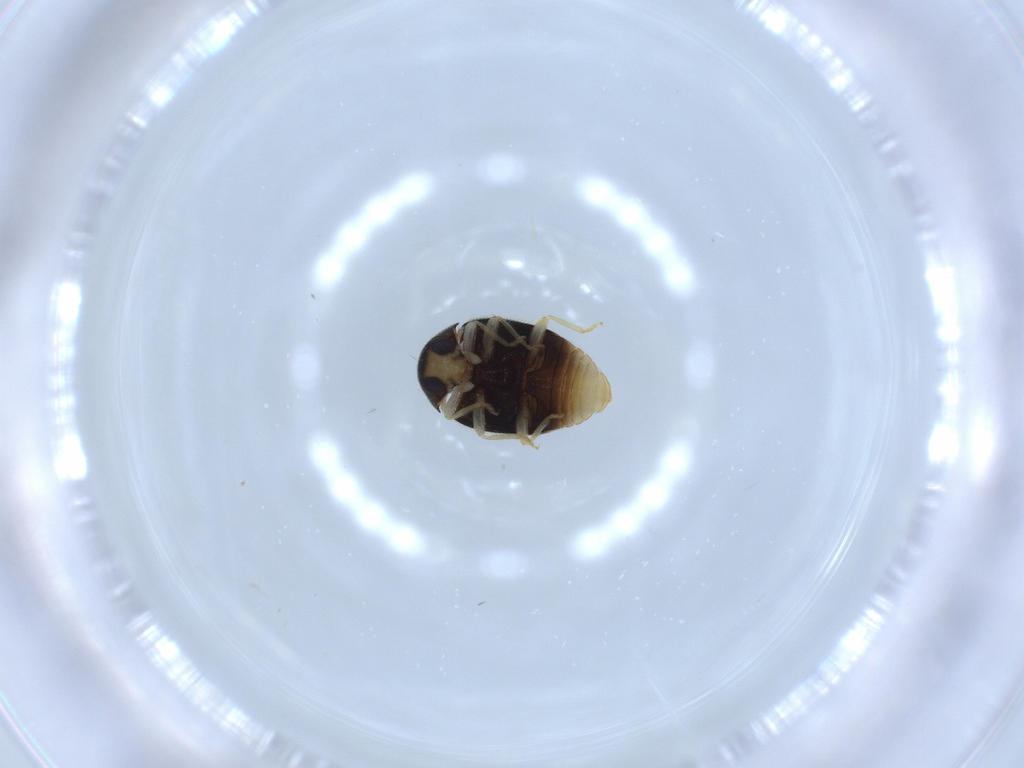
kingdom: Animalia
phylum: Arthropoda
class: Insecta
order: Coleoptera
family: Coccinellidae
